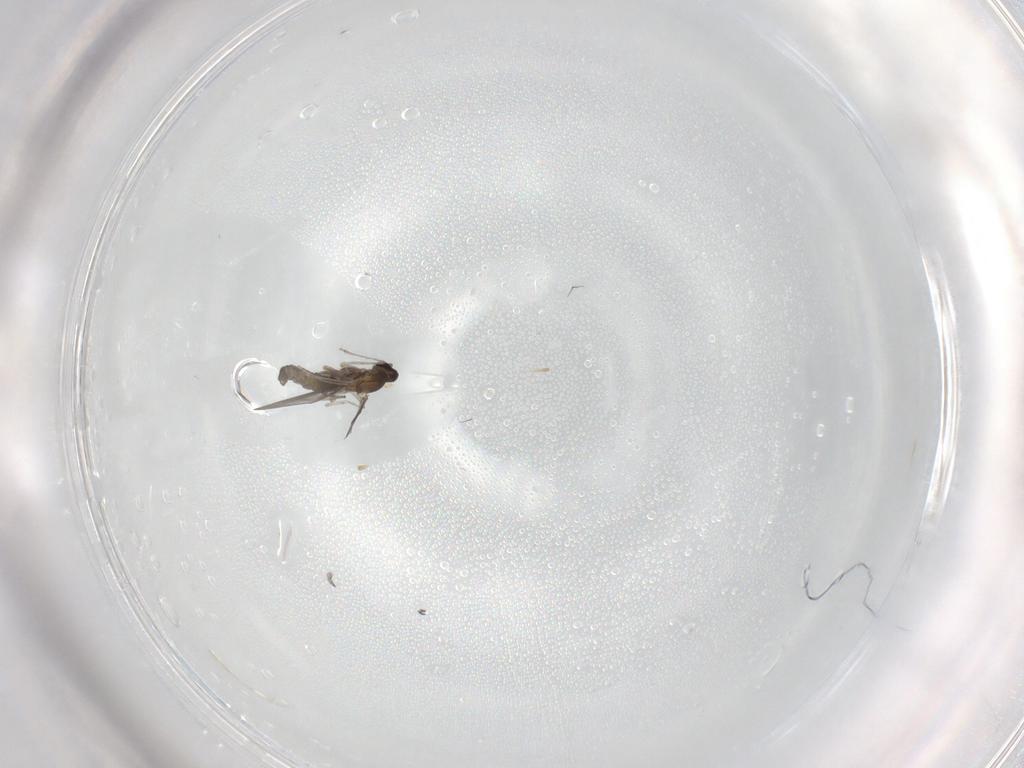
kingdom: Animalia
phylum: Arthropoda
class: Insecta
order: Diptera
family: Cecidomyiidae
